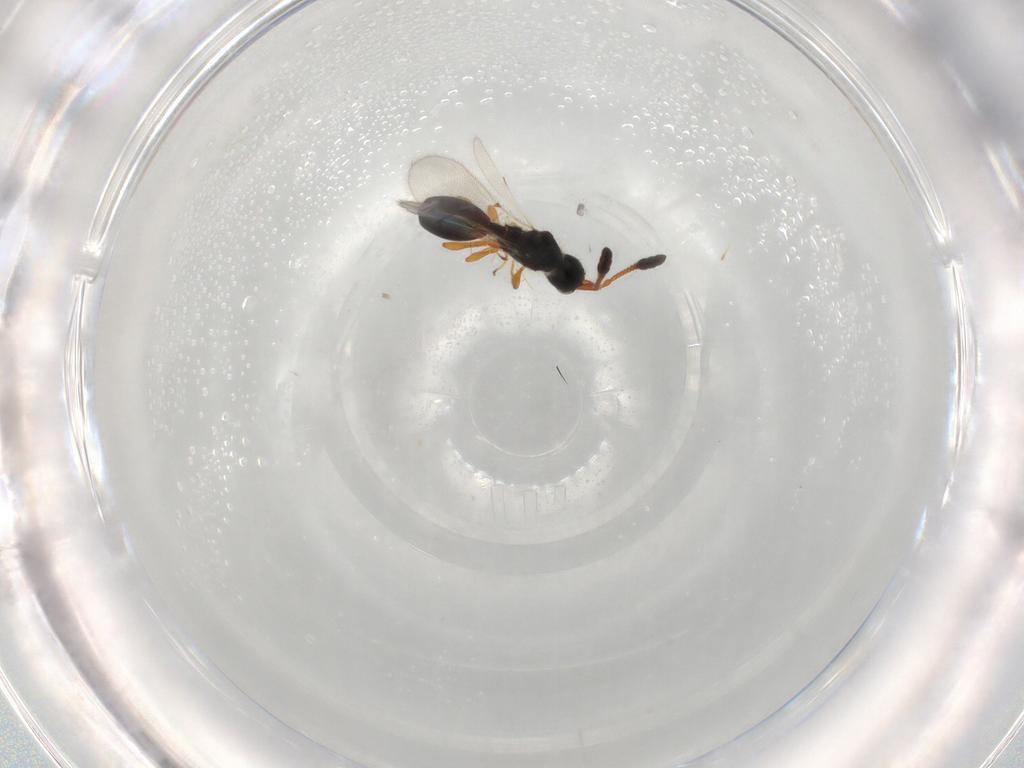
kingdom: Animalia
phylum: Arthropoda
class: Insecta
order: Hymenoptera
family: Diapriidae
